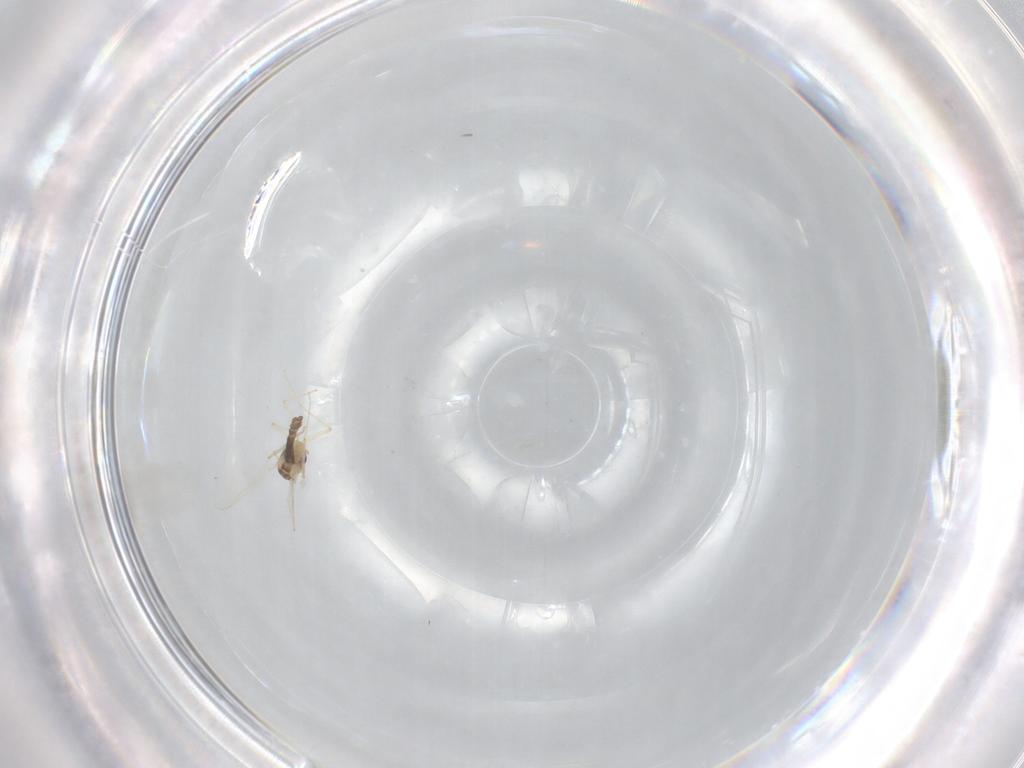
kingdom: Animalia
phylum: Arthropoda
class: Insecta
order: Diptera
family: Chironomidae
